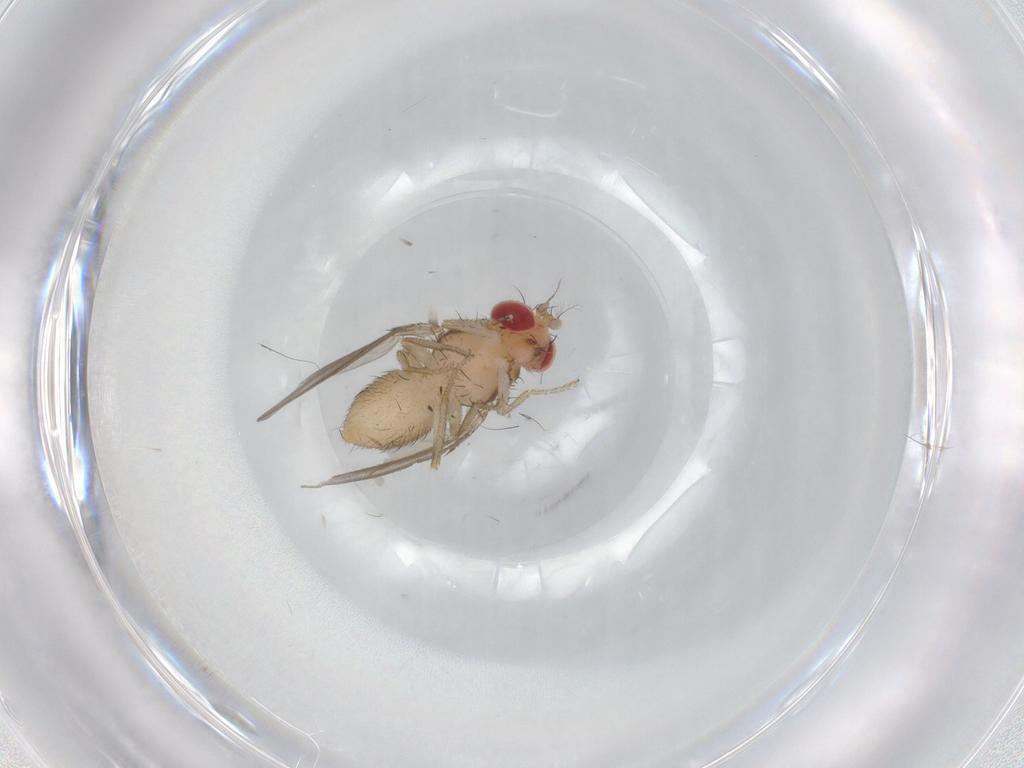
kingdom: Animalia
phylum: Arthropoda
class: Insecta
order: Diptera
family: Drosophilidae
